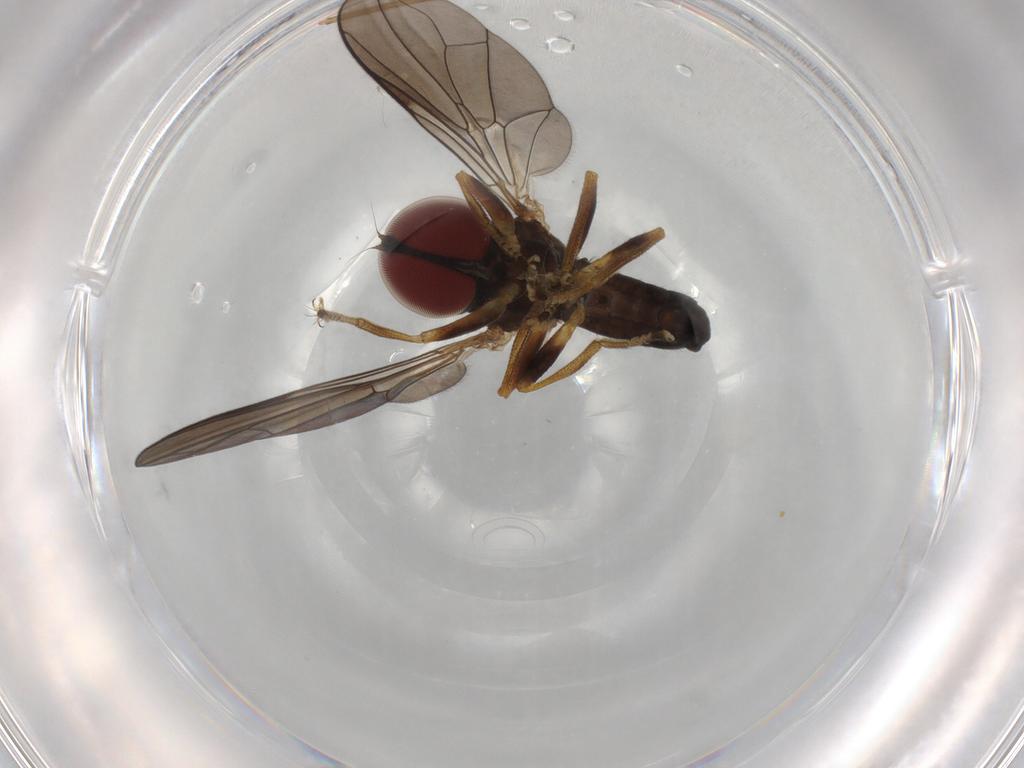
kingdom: Animalia
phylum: Arthropoda
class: Insecta
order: Diptera
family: Pipunculidae
